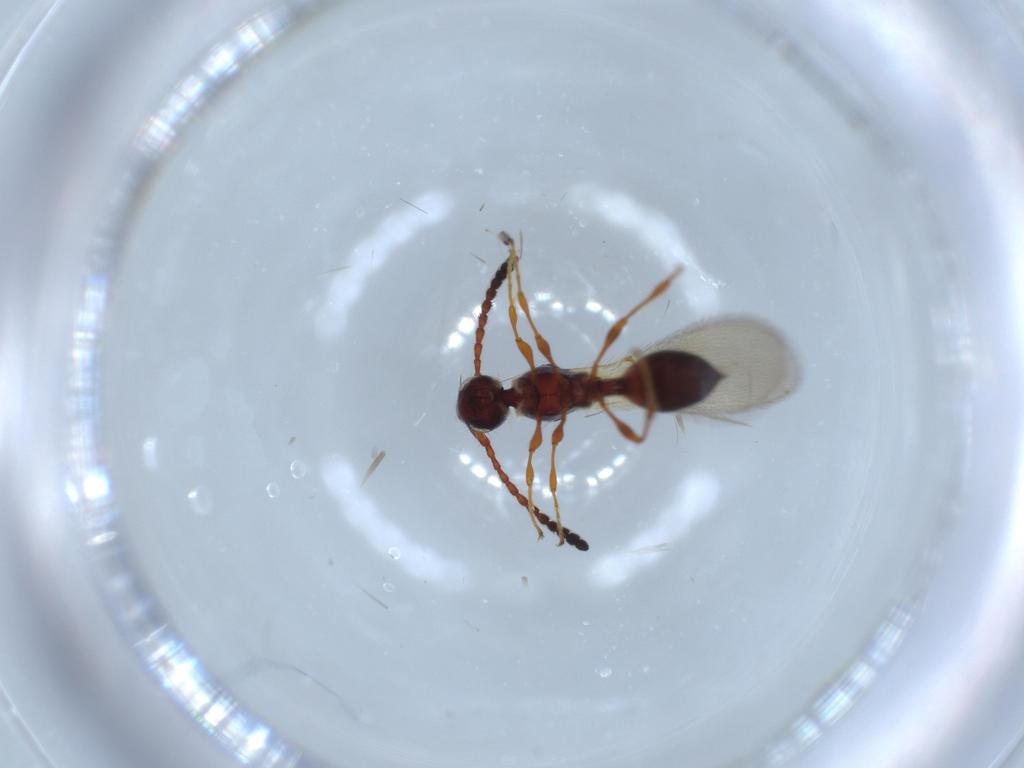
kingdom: Animalia
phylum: Arthropoda
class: Insecta
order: Hymenoptera
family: Diapriidae
